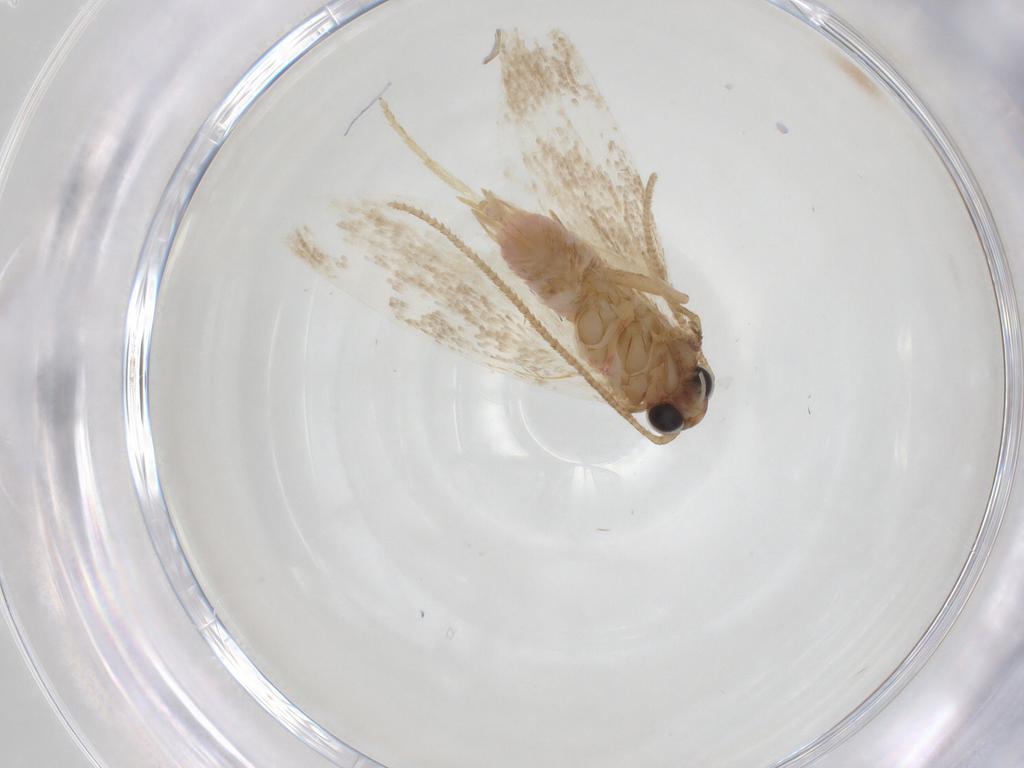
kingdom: Animalia
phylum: Arthropoda
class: Insecta
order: Lepidoptera
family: Autostichidae
